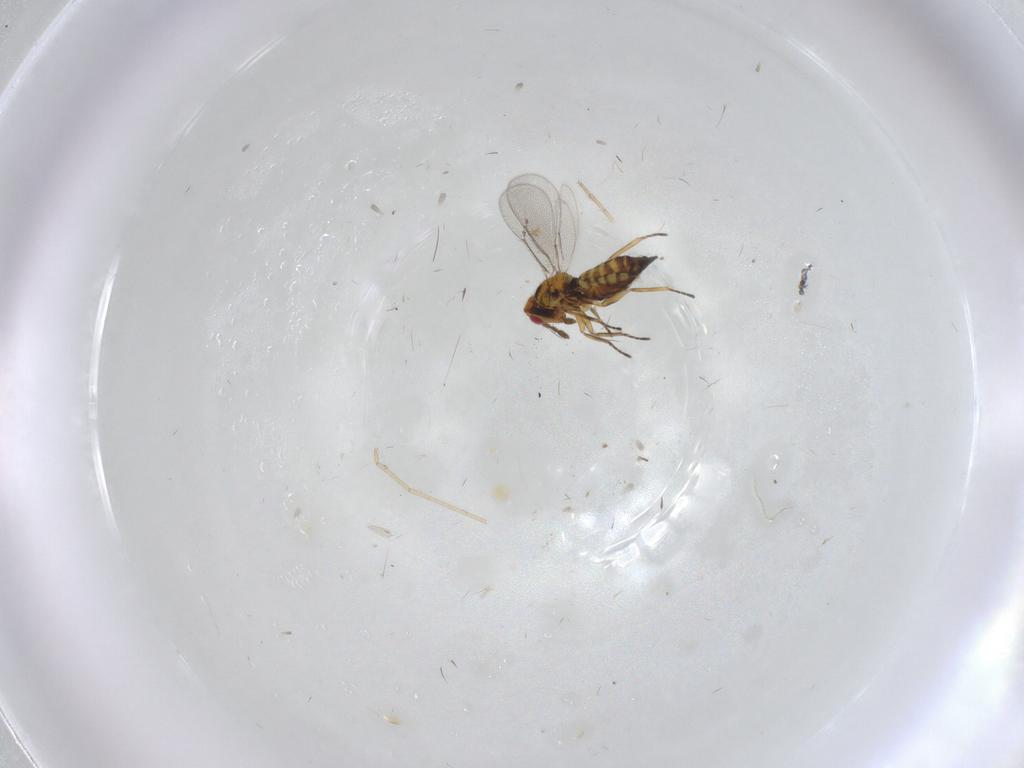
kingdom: Animalia
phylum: Arthropoda
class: Insecta
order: Hymenoptera
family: Eulophidae
